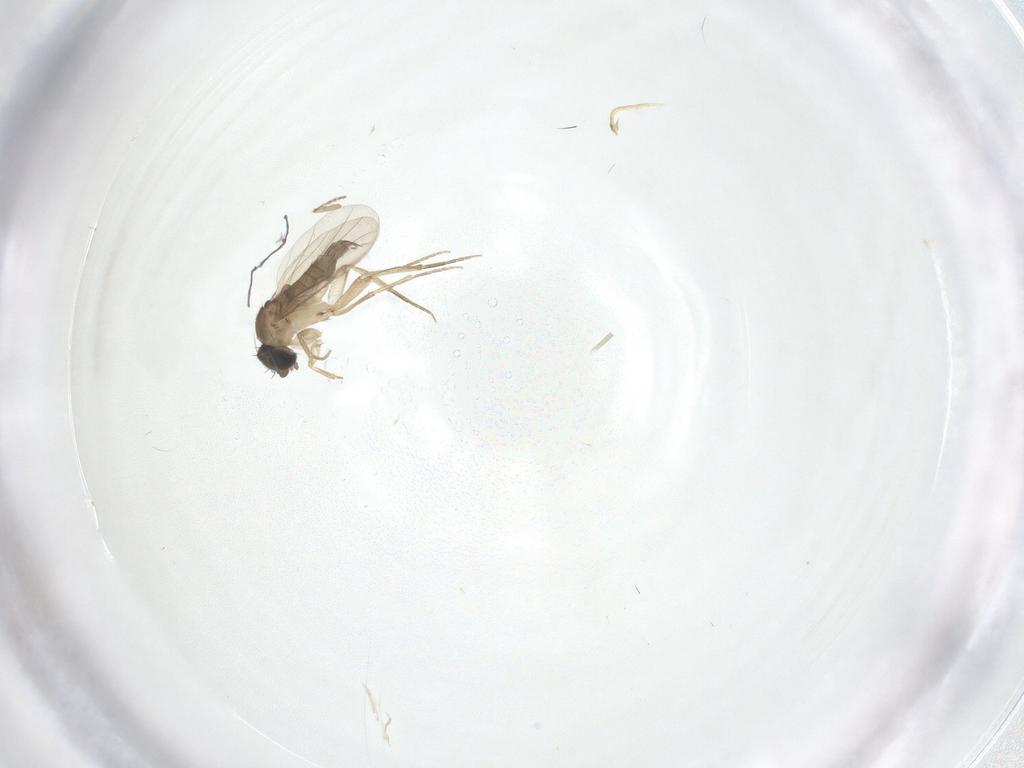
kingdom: Animalia
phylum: Arthropoda
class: Insecta
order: Diptera
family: Phoridae
